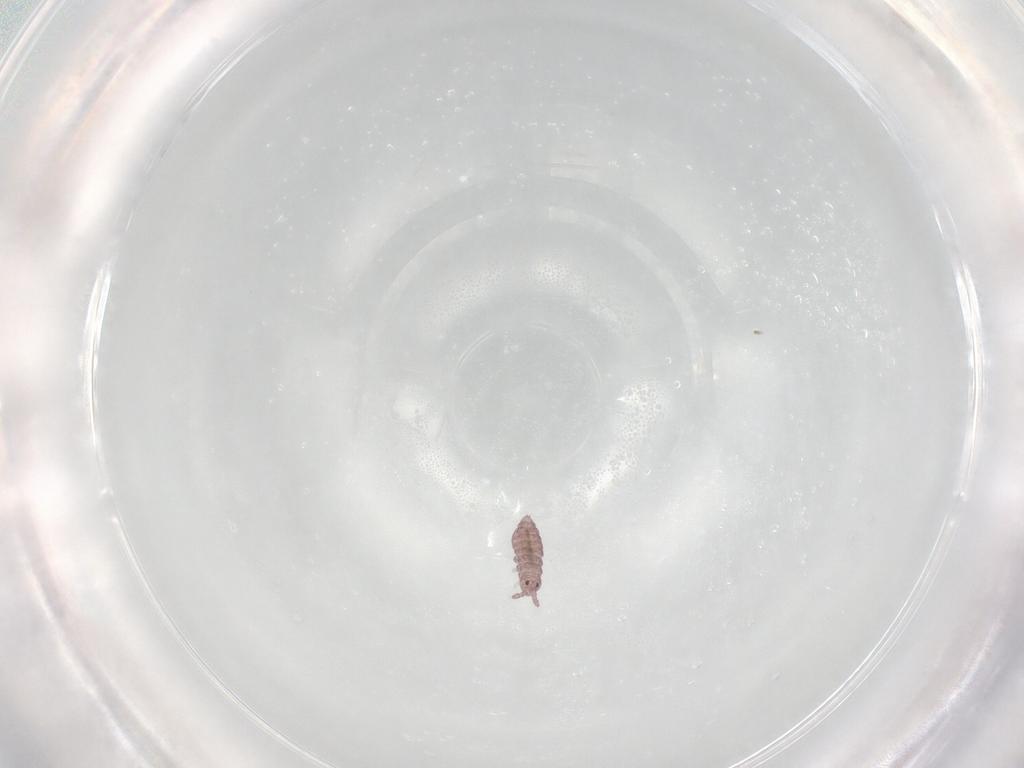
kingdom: Animalia
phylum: Arthropoda
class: Collembola
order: Poduromorpha
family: Hypogastruridae
